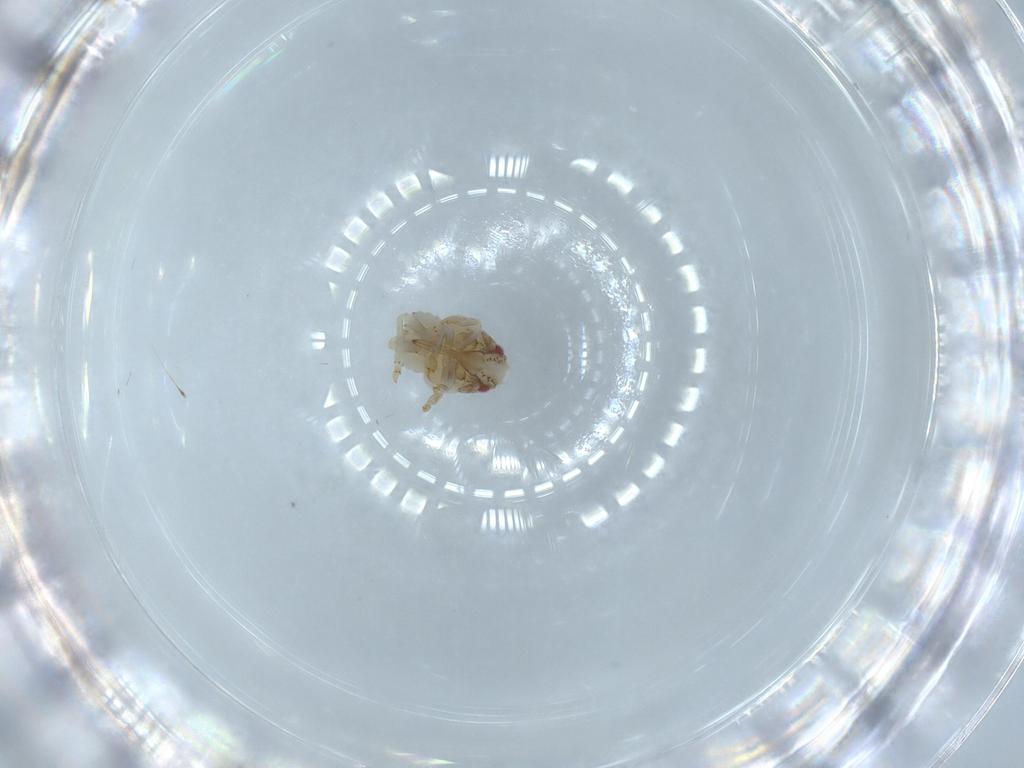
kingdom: Animalia
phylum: Arthropoda
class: Insecta
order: Hemiptera
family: Acanaloniidae
